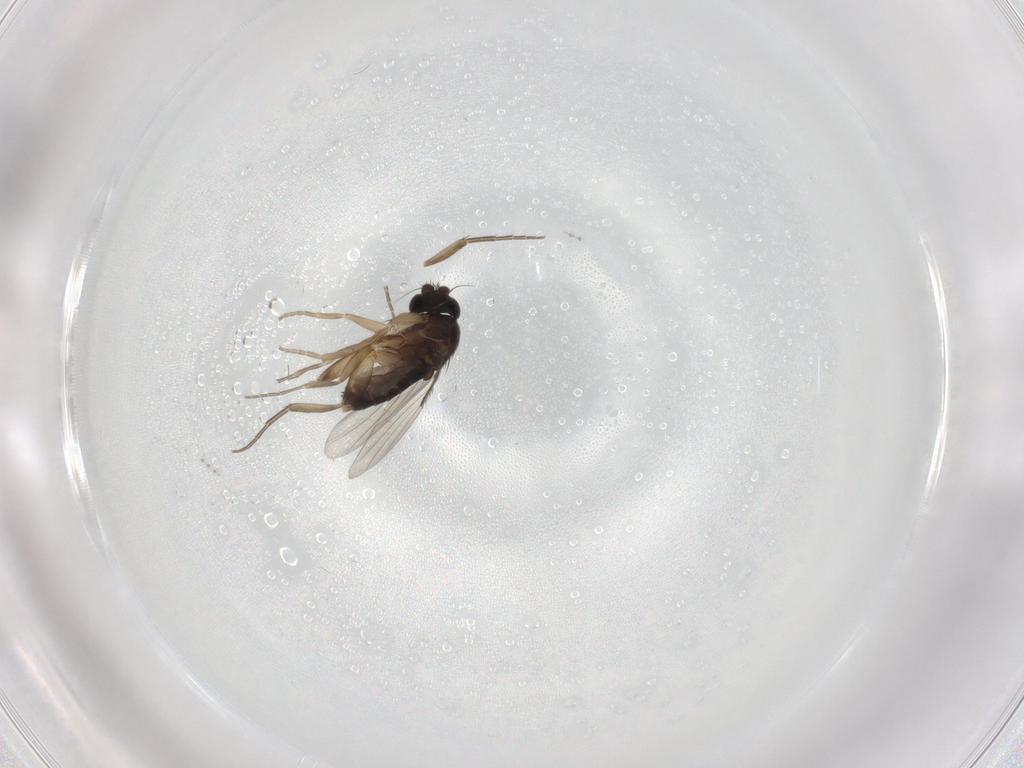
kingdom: Animalia
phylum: Arthropoda
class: Insecta
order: Diptera
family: Phoridae
